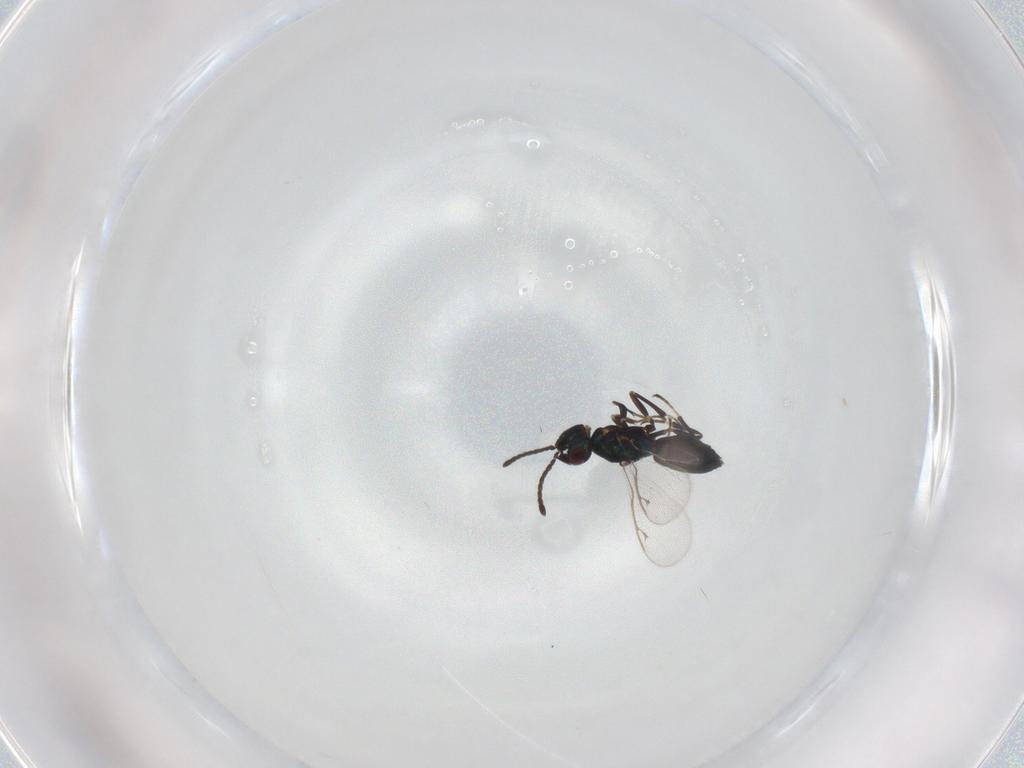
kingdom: Animalia
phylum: Arthropoda
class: Insecta
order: Hymenoptera
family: Eupelmidae
